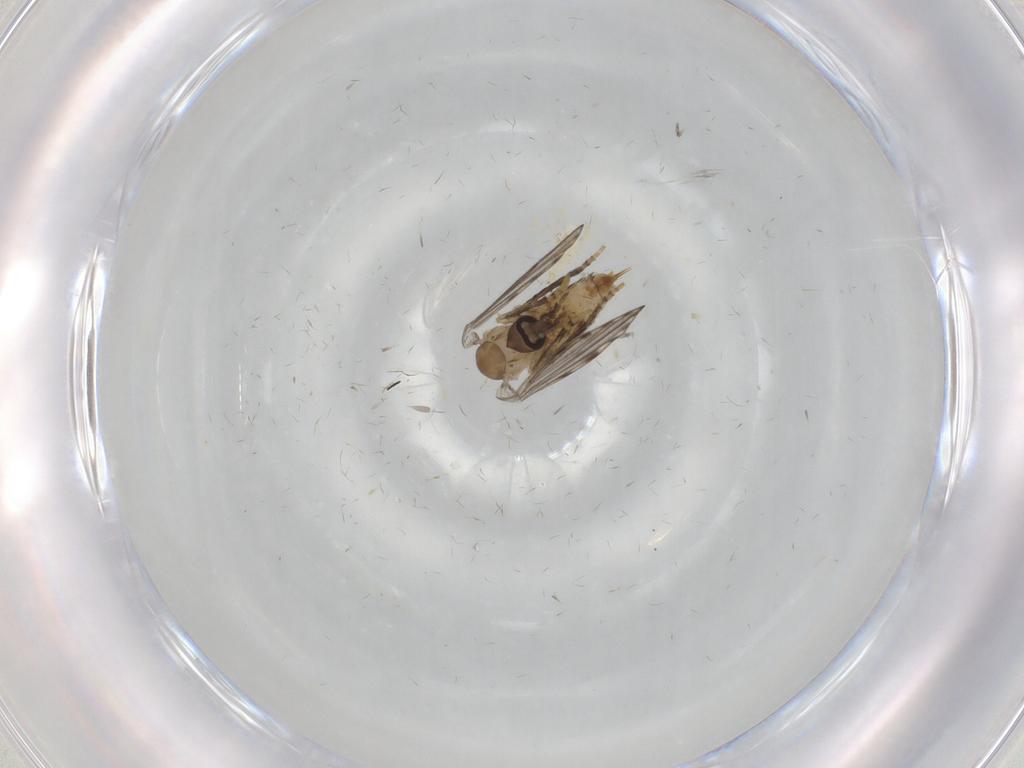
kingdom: Animalia
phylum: Arthropoda
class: Insecta
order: Diptera
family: Psychodidae
